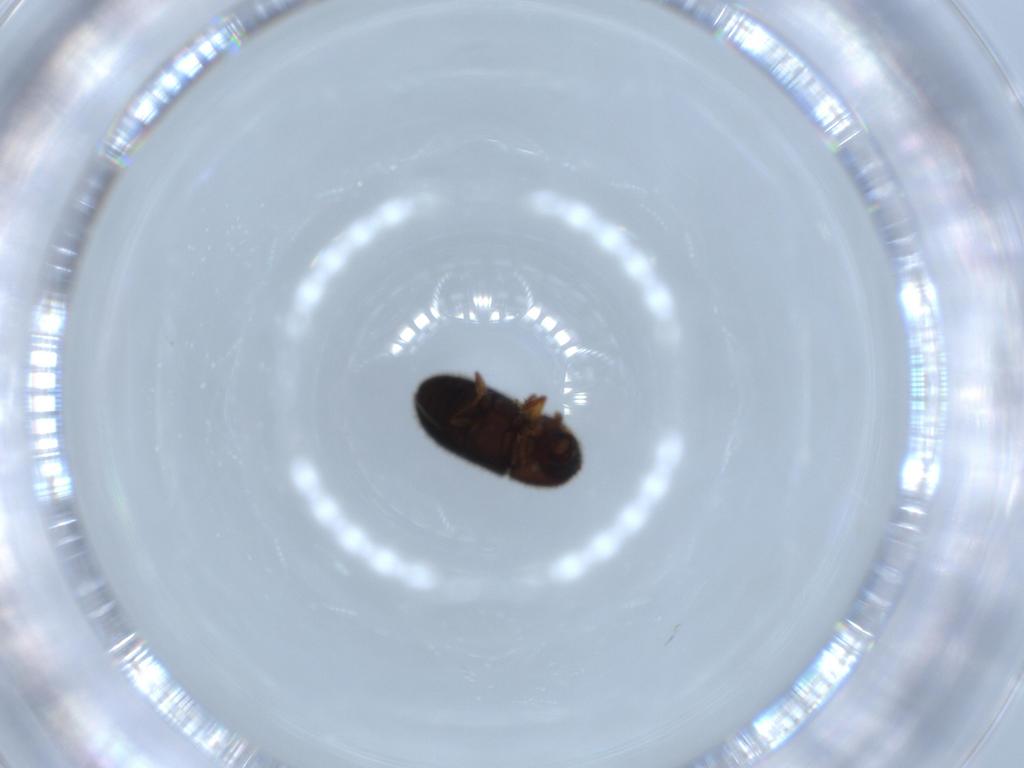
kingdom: Animalia
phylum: Arthropoda
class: Insecta
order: Coleoptera
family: Curculionidae
